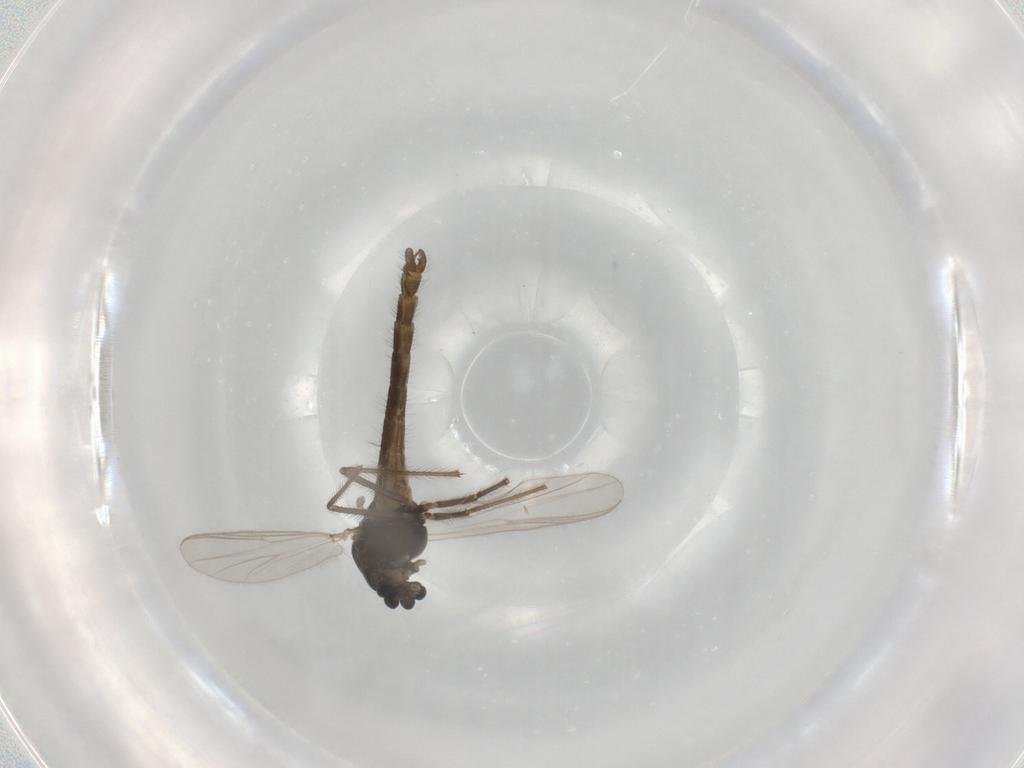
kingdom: Animalia
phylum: Arthropoda
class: Insecta
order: Diptera
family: Chironomidae
